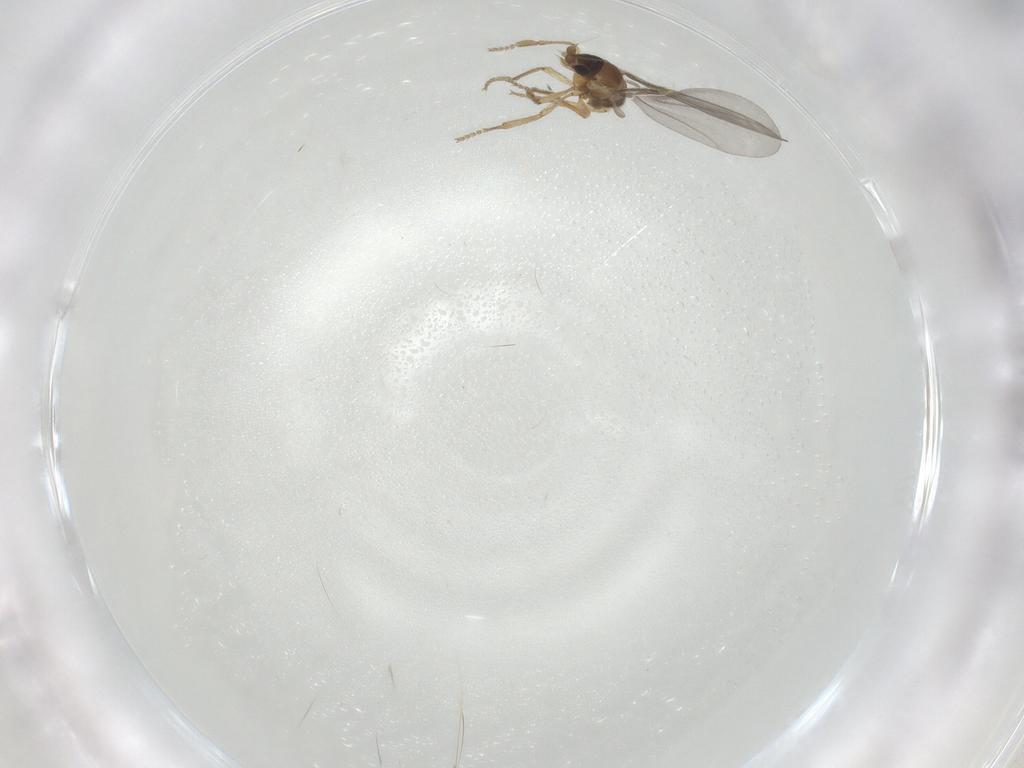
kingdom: Animalia
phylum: Arthropoda
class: Insecta
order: Diptera
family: Phoridae
